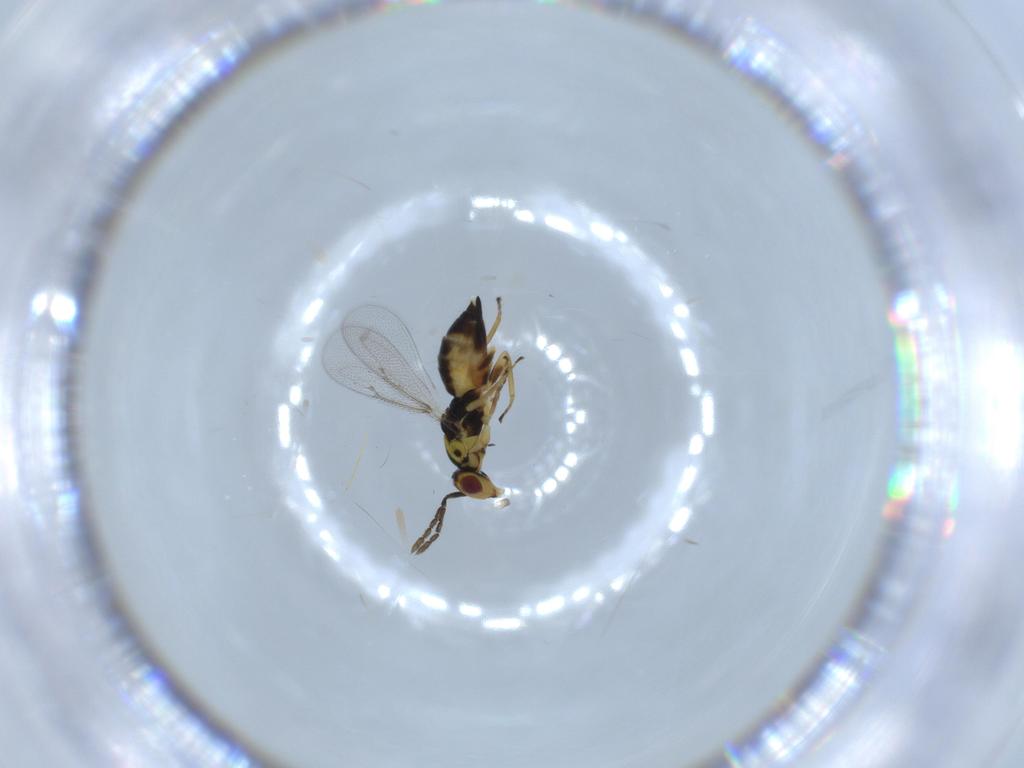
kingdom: Animalia
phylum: Arthropoda
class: Insecta
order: Hymenoptera
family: Eulophidae
